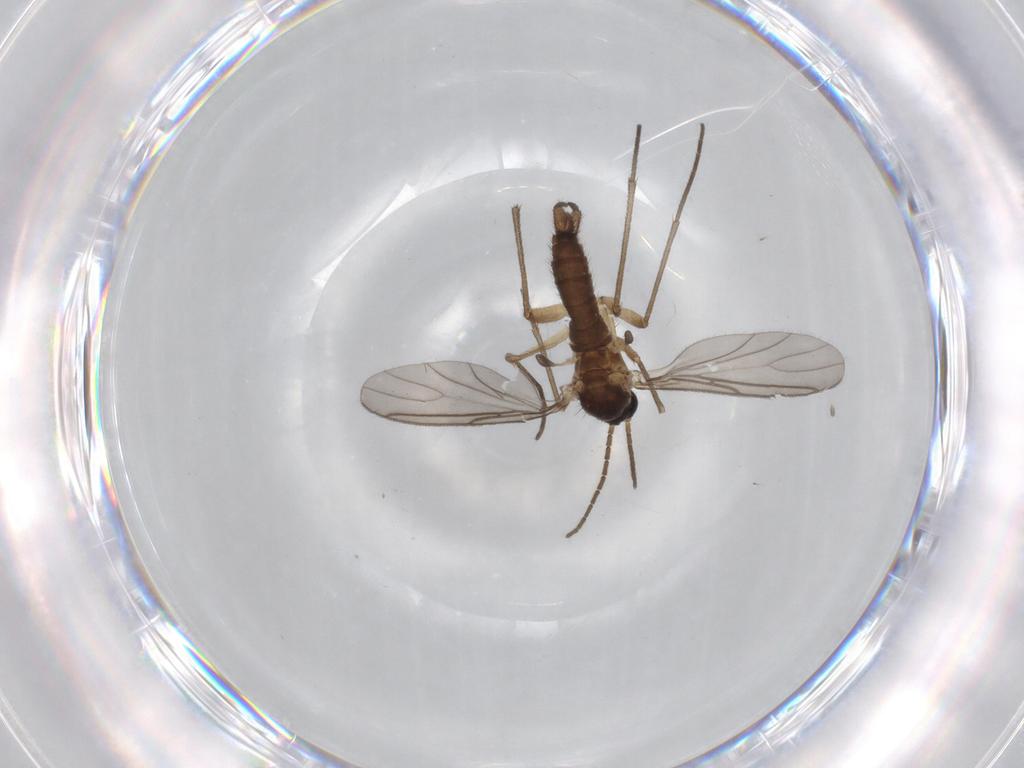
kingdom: Animalia
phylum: Arthropoda
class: Insecta
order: Diptera
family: Sciaridae
